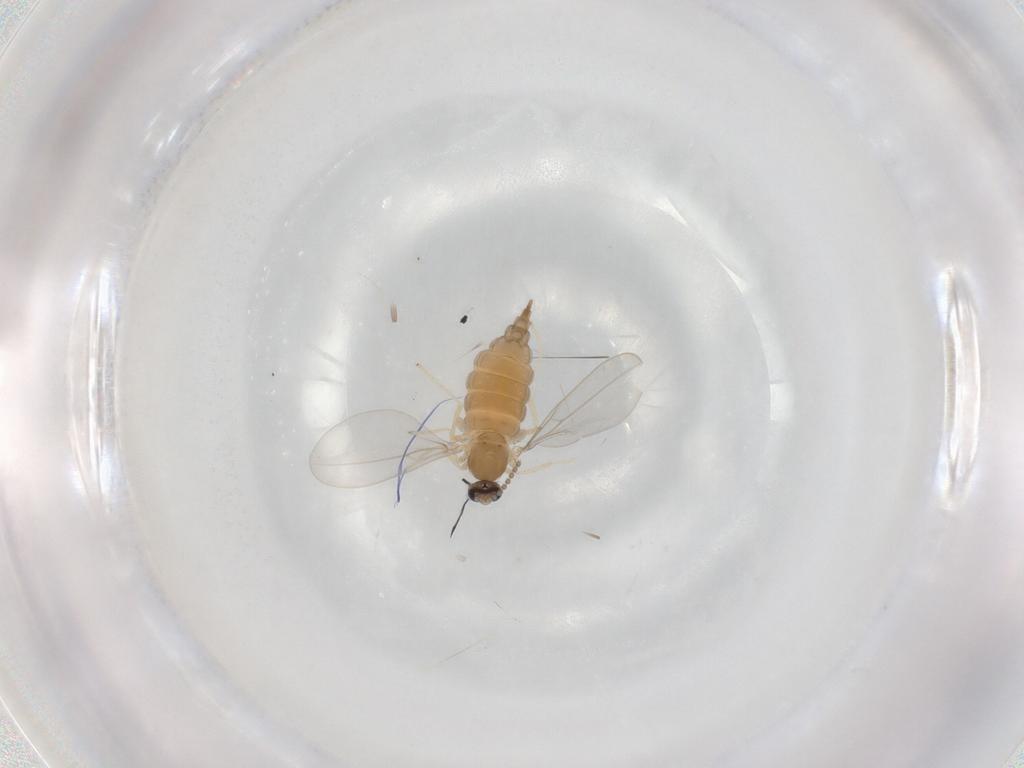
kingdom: Animalia
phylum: Arthropoda
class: Insecta
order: Diptera
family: Cecidomyiidae
